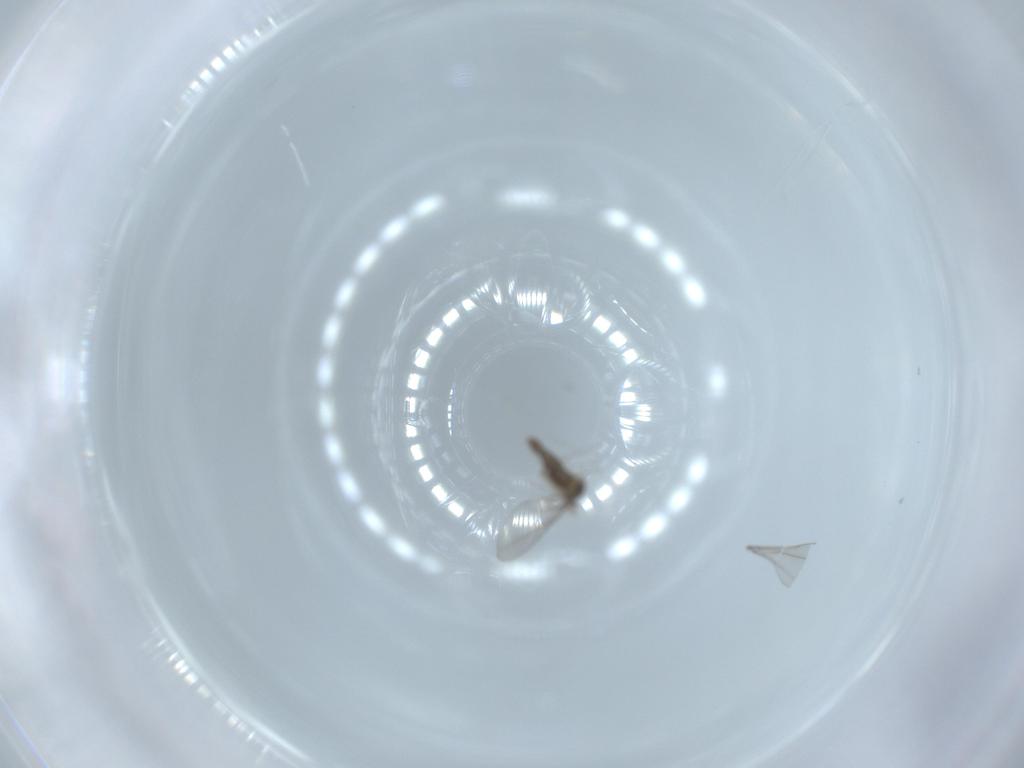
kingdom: Animalia
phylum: Arthropoda
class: Insecta
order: Diptera
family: Cecidomyiidae
